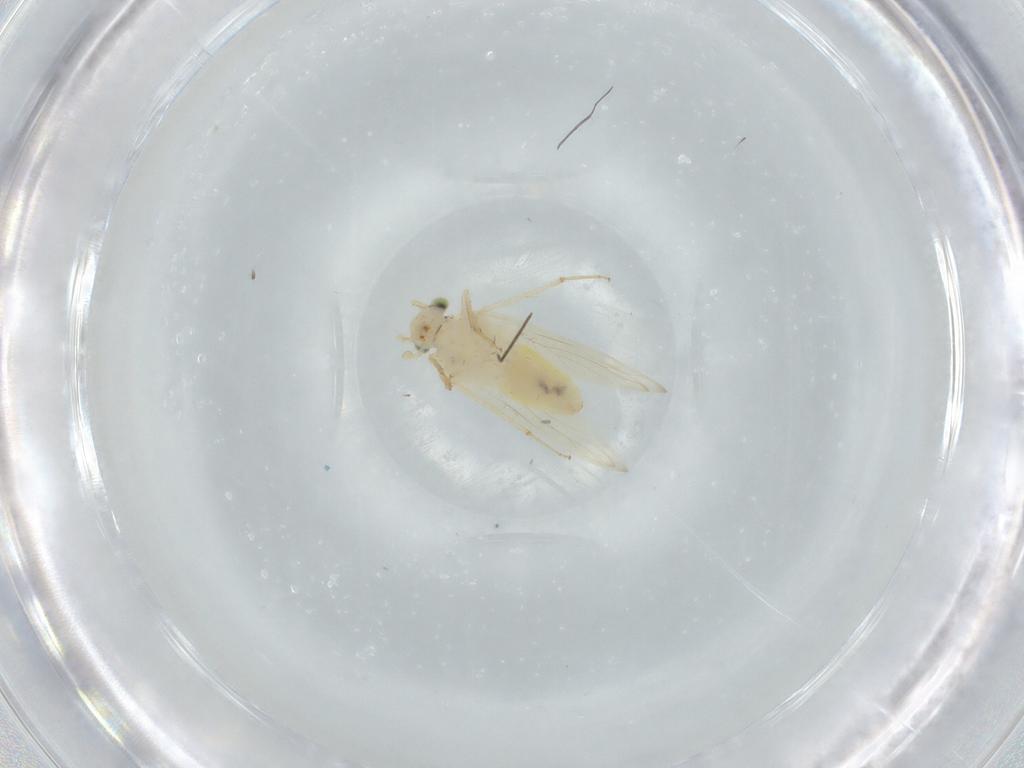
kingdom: Animalia
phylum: Arthropoda
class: Insecta
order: Psocodea
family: Lepidopsocidae
